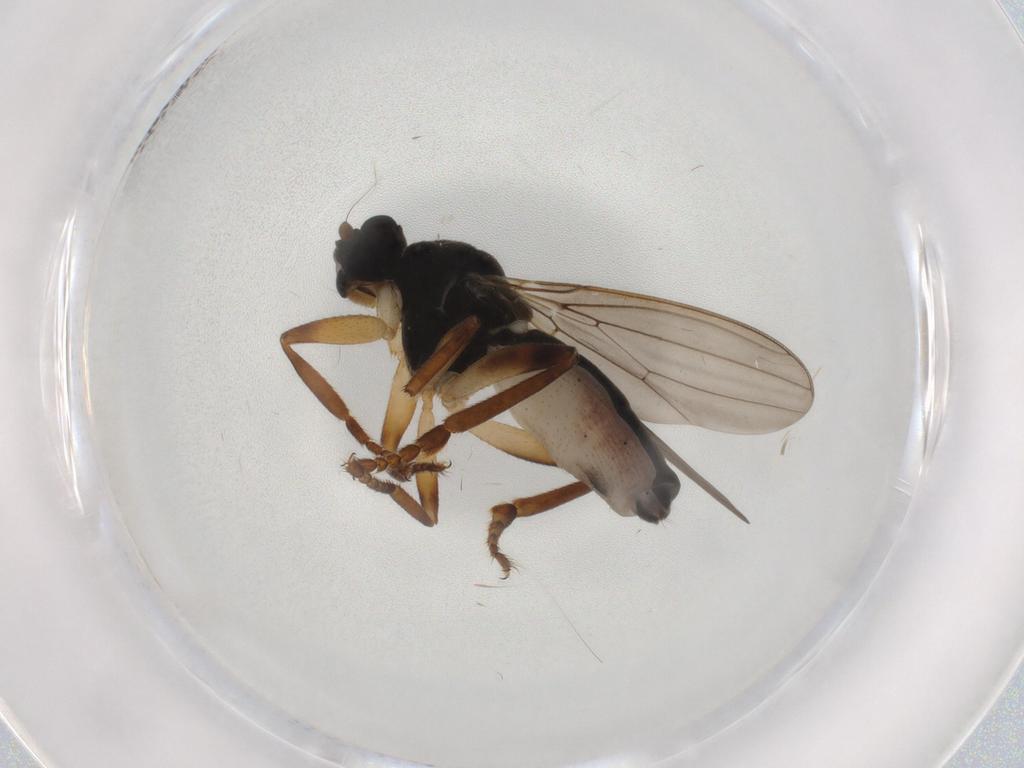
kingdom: Animalia
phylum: Arthropoda
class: Insecta
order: Diptera
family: Sphaeroceridae
